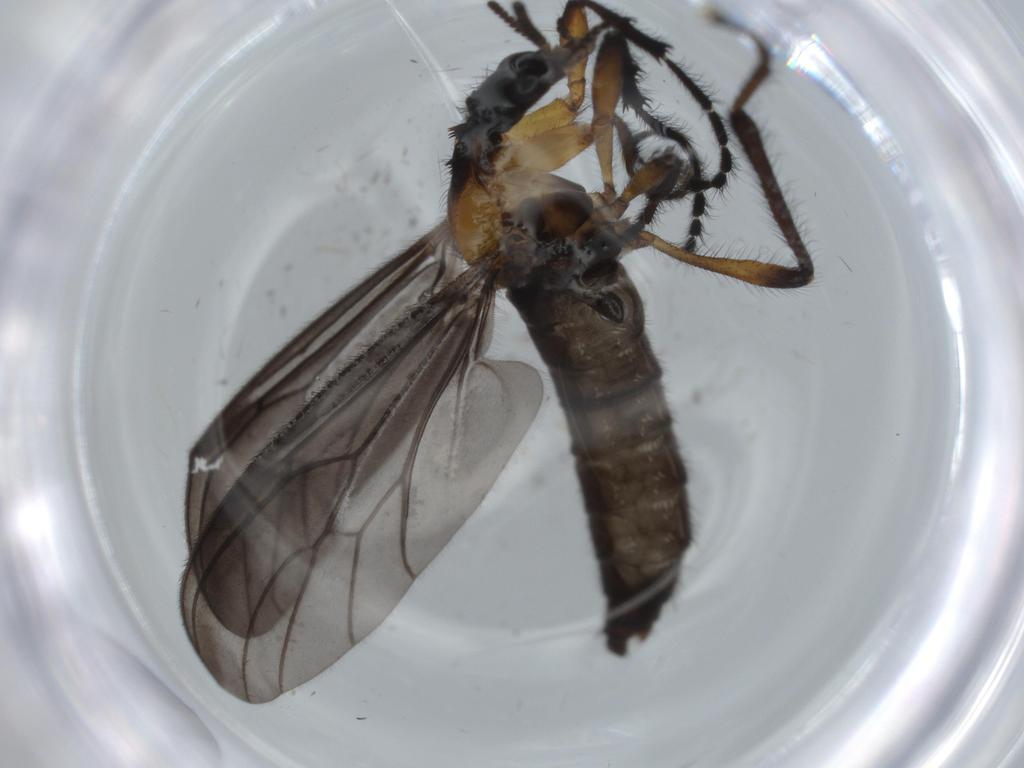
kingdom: Animalia
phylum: Arthropoda
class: Insecta
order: Diptera
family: Bibionidae
